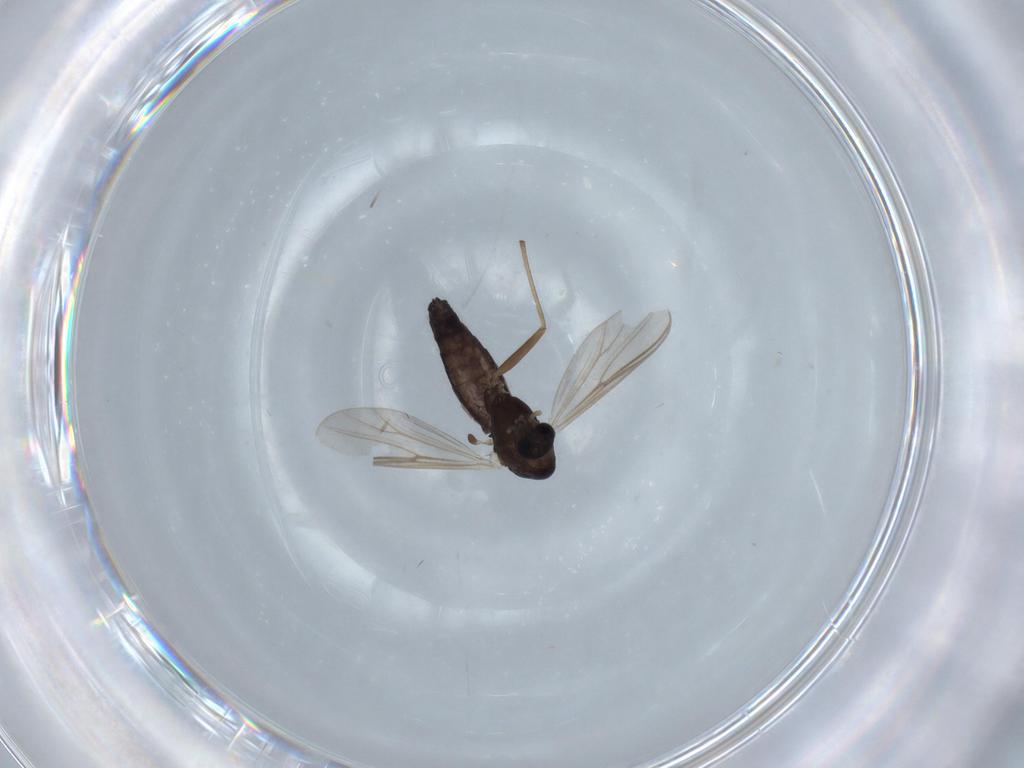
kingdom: Animalia
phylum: Arthropoda
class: Insecta
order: Diptera
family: Chironomidae
